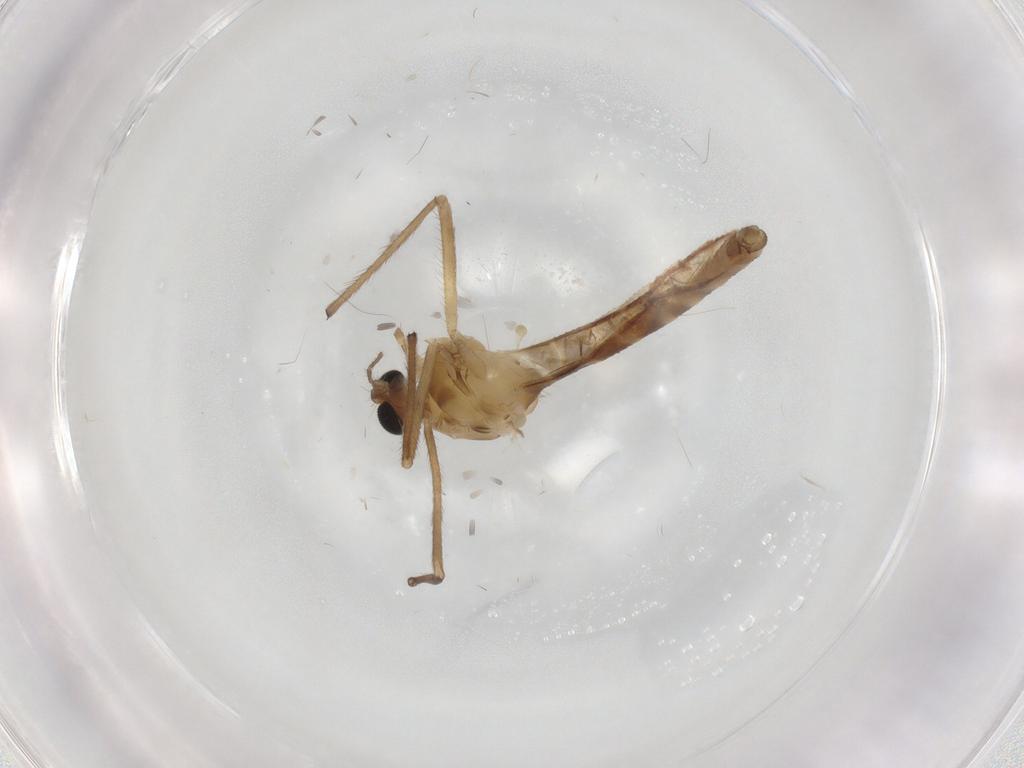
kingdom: Animalia
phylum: Arthropoda
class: Insecta
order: Diptera
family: Chironomidae
